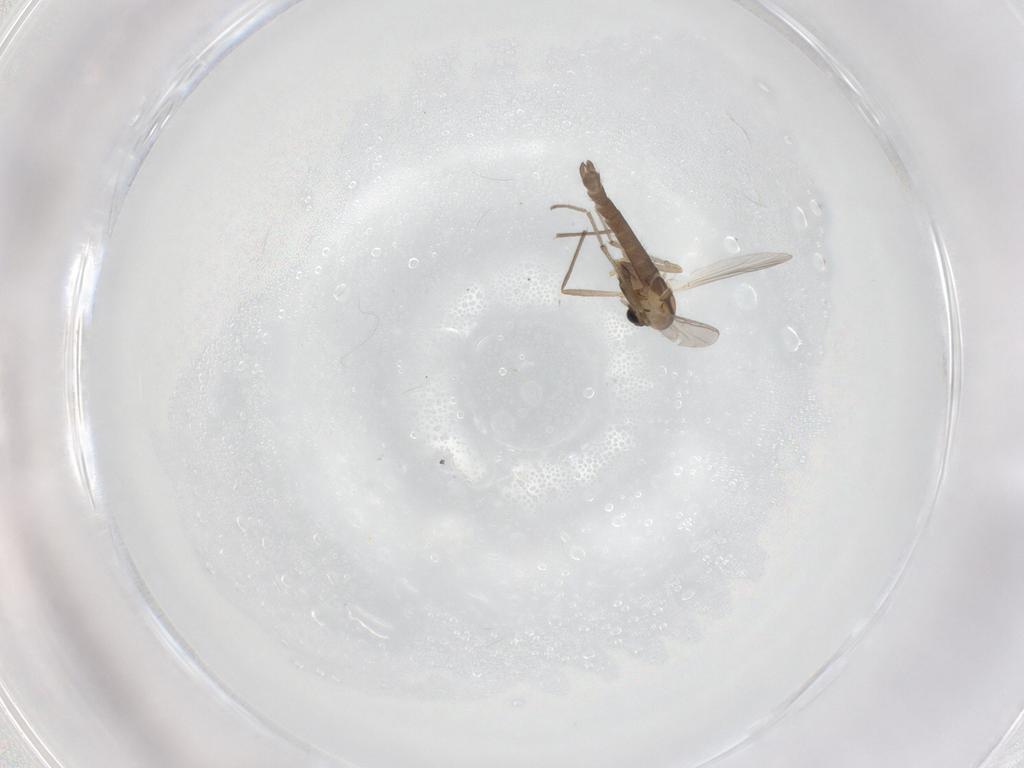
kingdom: Animalia
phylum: Arthropoda
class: Insecta
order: Diptera
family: Chironomidae
